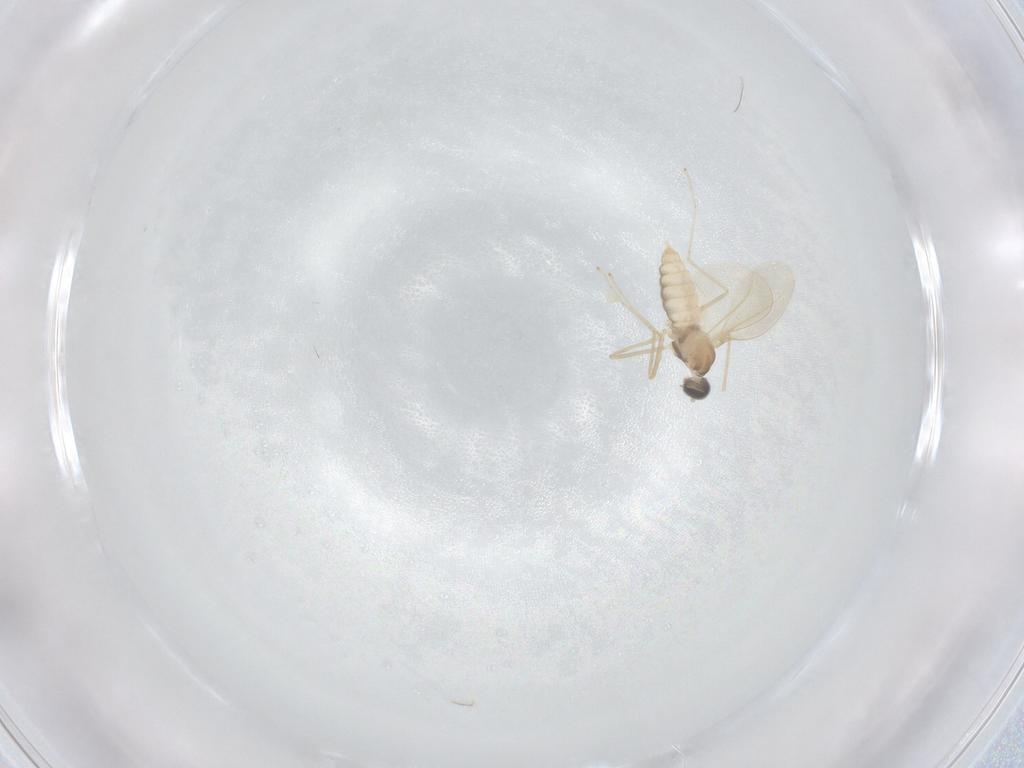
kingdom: Animalia
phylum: Arthropoda
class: Insecta
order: Diptera
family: Cecidomyiidae
